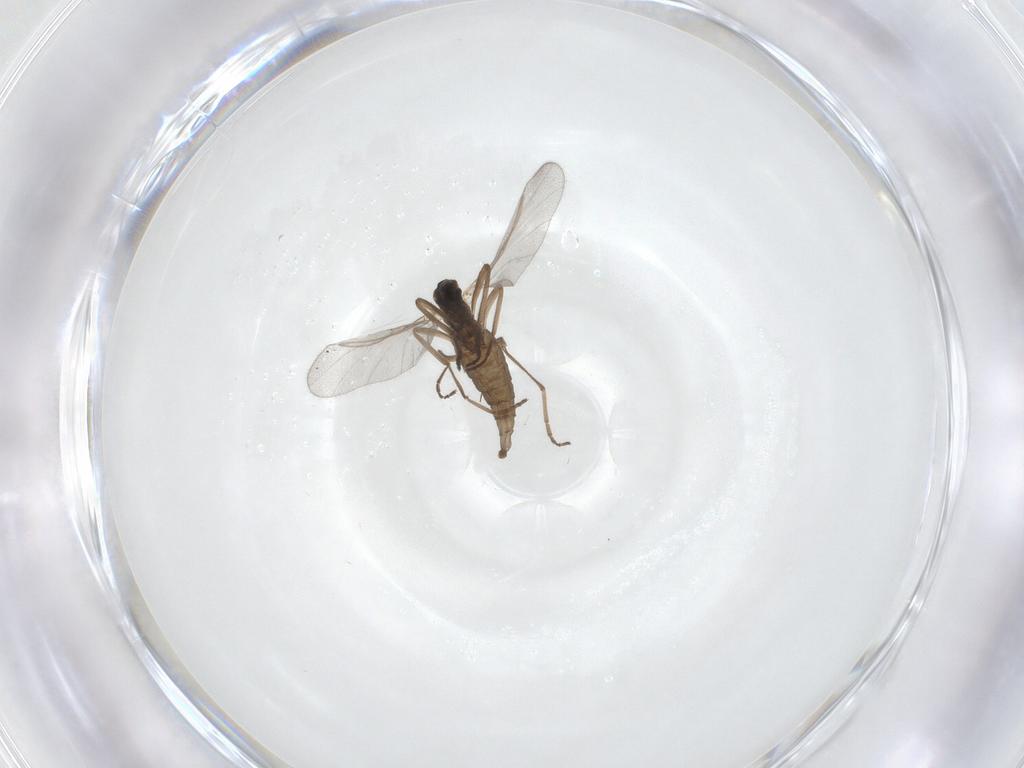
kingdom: Animalia
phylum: Arthropoda
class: Insecta
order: Diptera
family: Cecidomyiidae
